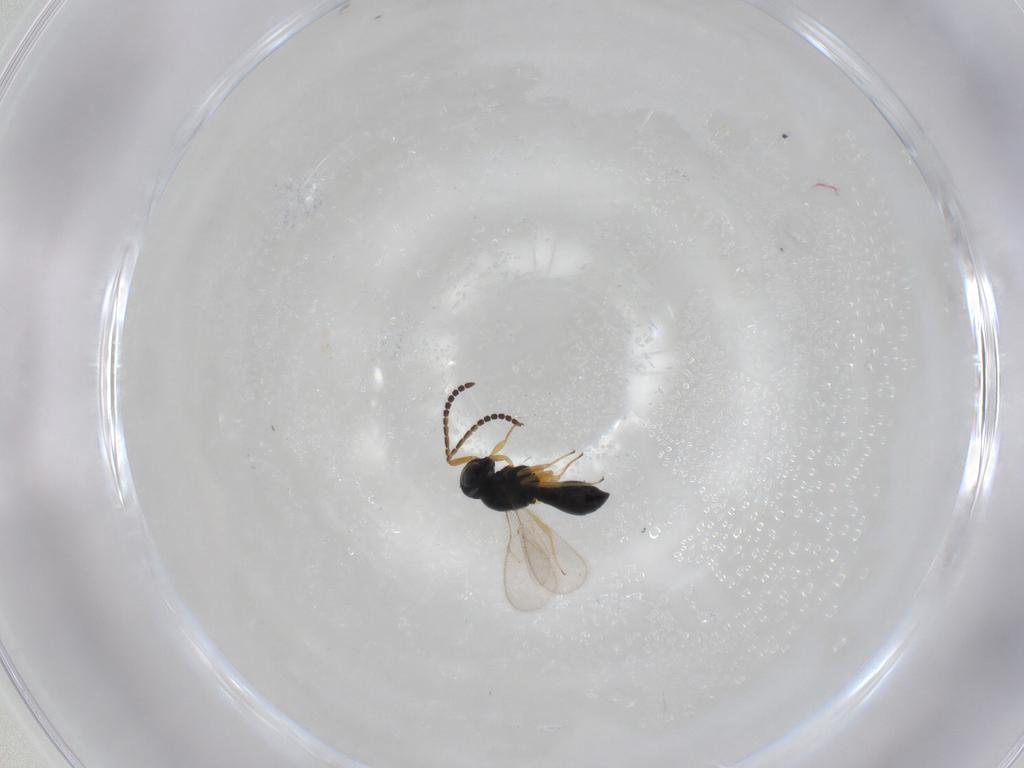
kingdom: Animalia
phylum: Arthropoda
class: Insecta
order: Hymenoptera
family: Scelionidae
